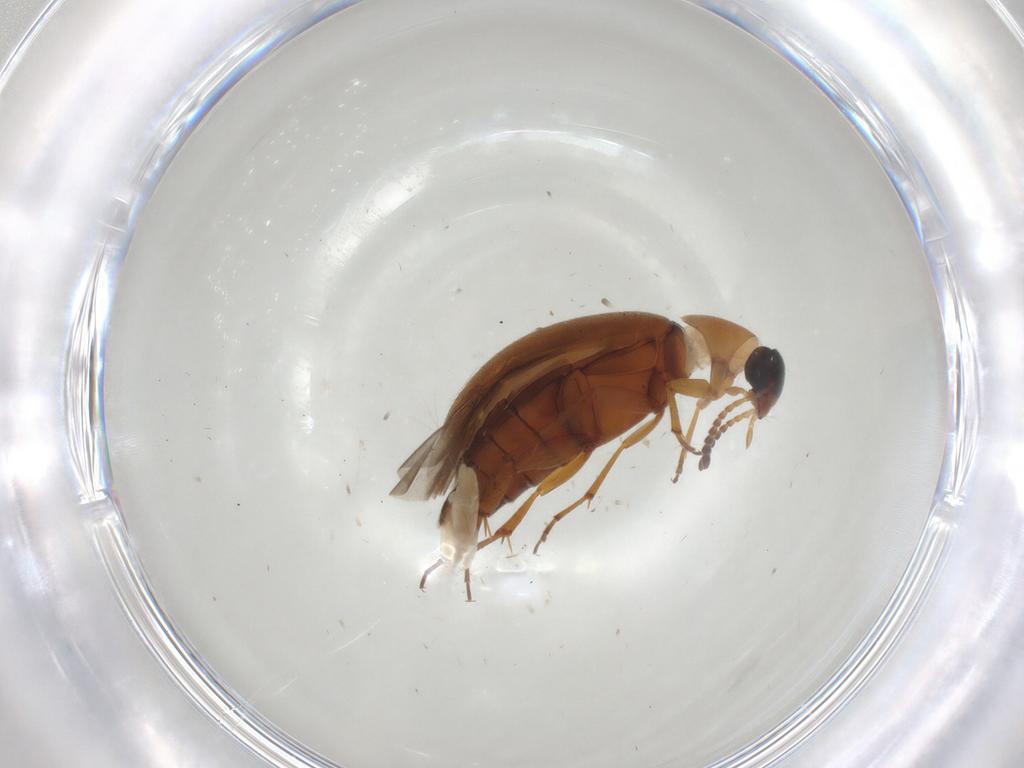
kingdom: Animalia
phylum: Arthropoda
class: Insecta
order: Coleoptera
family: Scraptiidae
